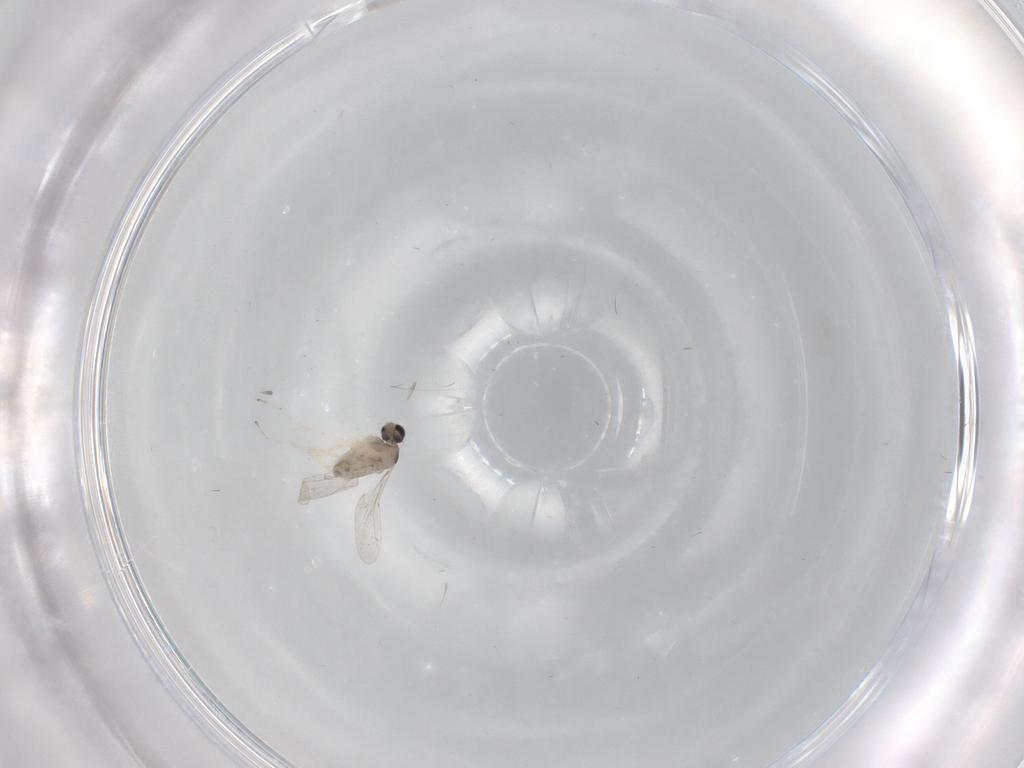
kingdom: Animalia
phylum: Arthropoda
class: Insecta
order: Diptera
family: Cecidomyiidae
